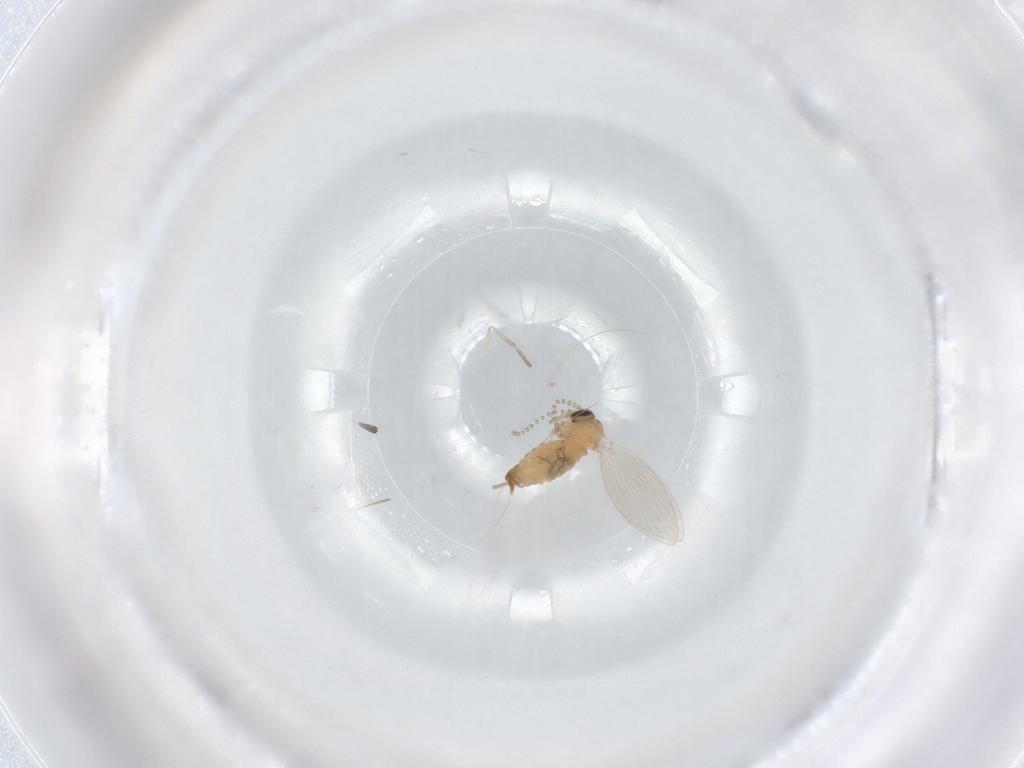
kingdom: Animalia
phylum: Arthropoda
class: Insecta
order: Diptera
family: Psychodidae
